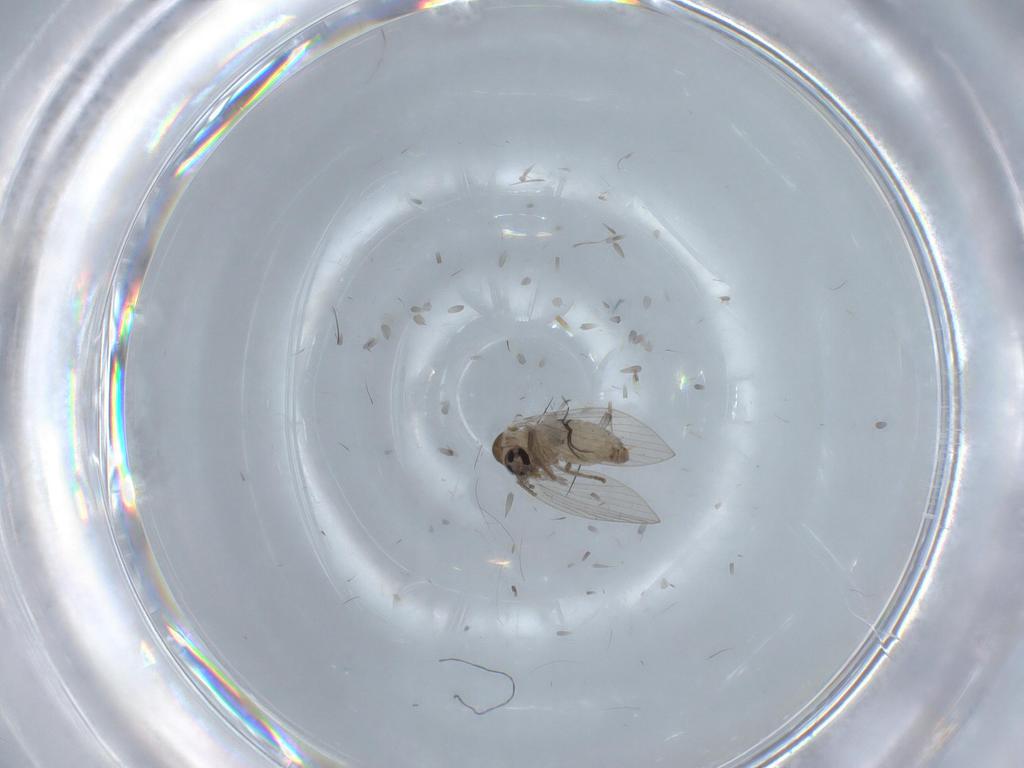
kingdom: Animalia
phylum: Arthropoda
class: Insecta
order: Diptera
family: Psychodidae
